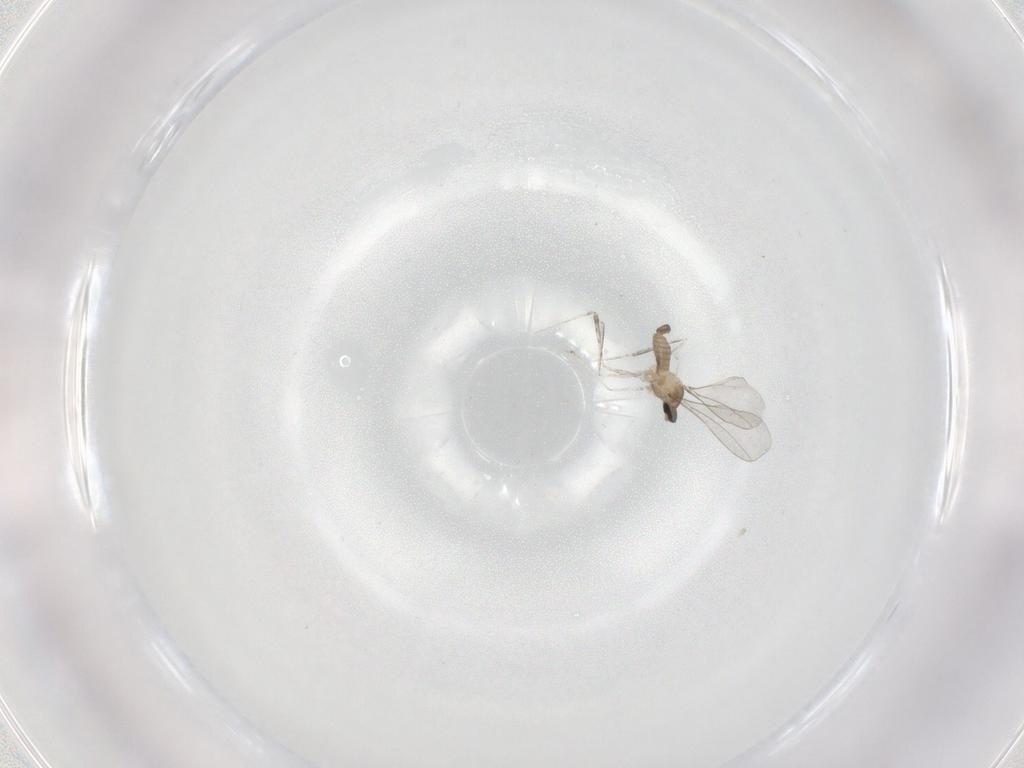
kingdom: Animalia
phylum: Arthropoda
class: Insecta
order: Diptera
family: Cecidomyiidae
